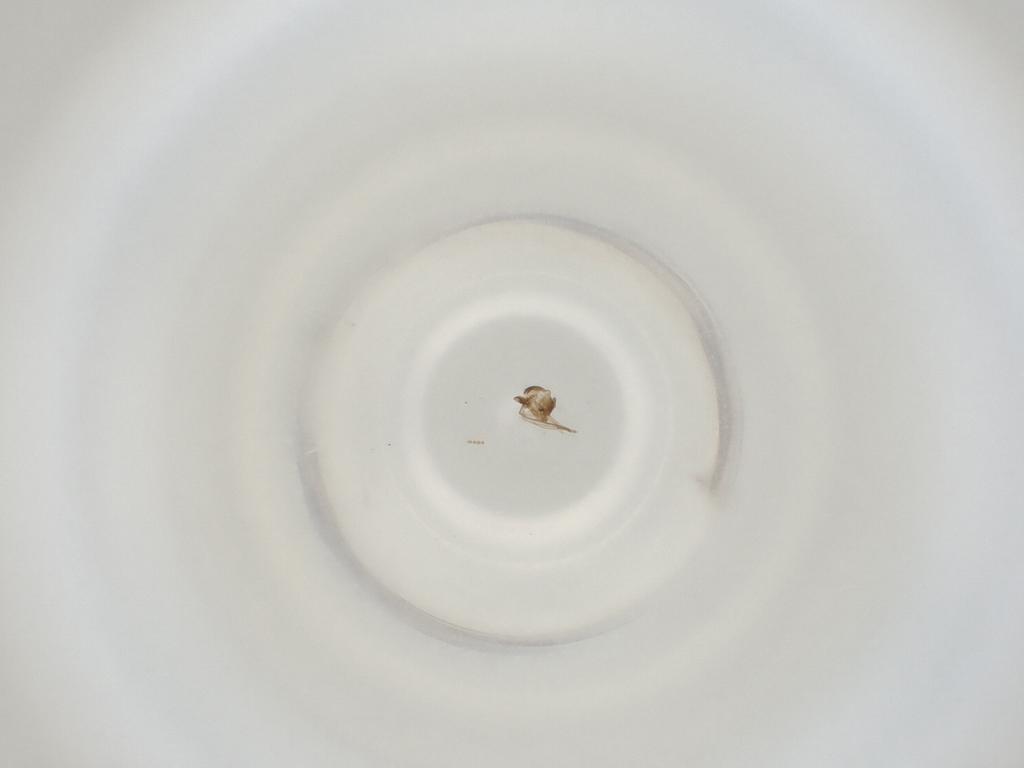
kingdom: Animalia
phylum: Arthropoda
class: Insecta
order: Diptera
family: Cecidomyiidae
